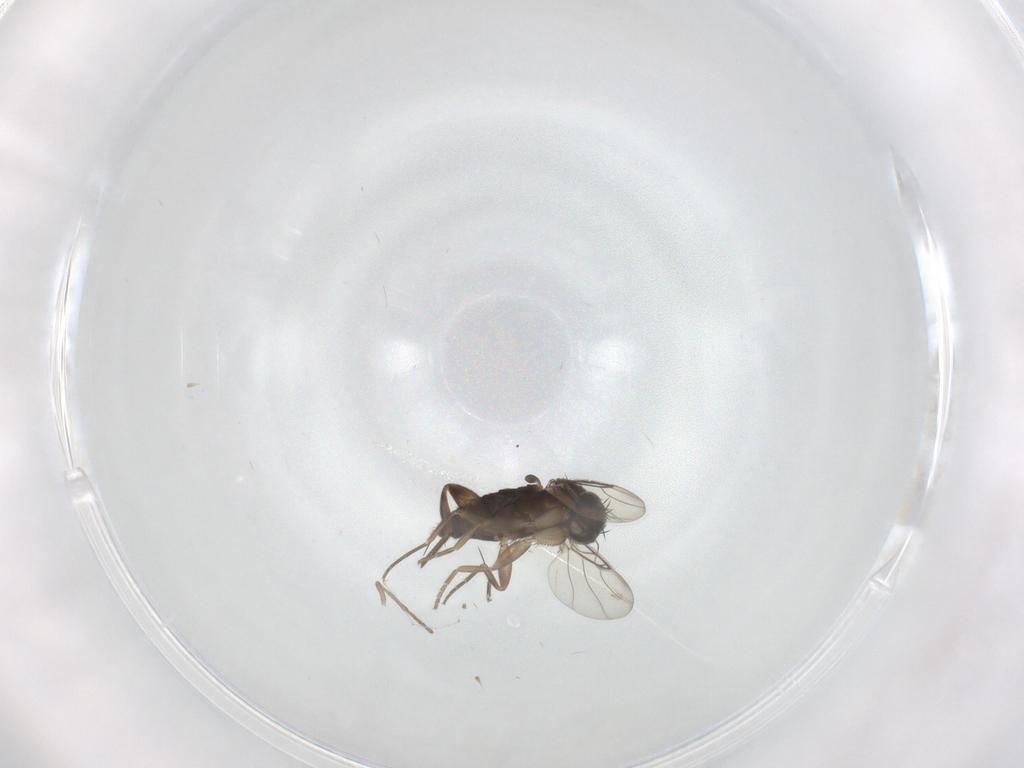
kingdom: Animalia
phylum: Arthropoda
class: Insecta
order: Diptera
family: Phoridae
